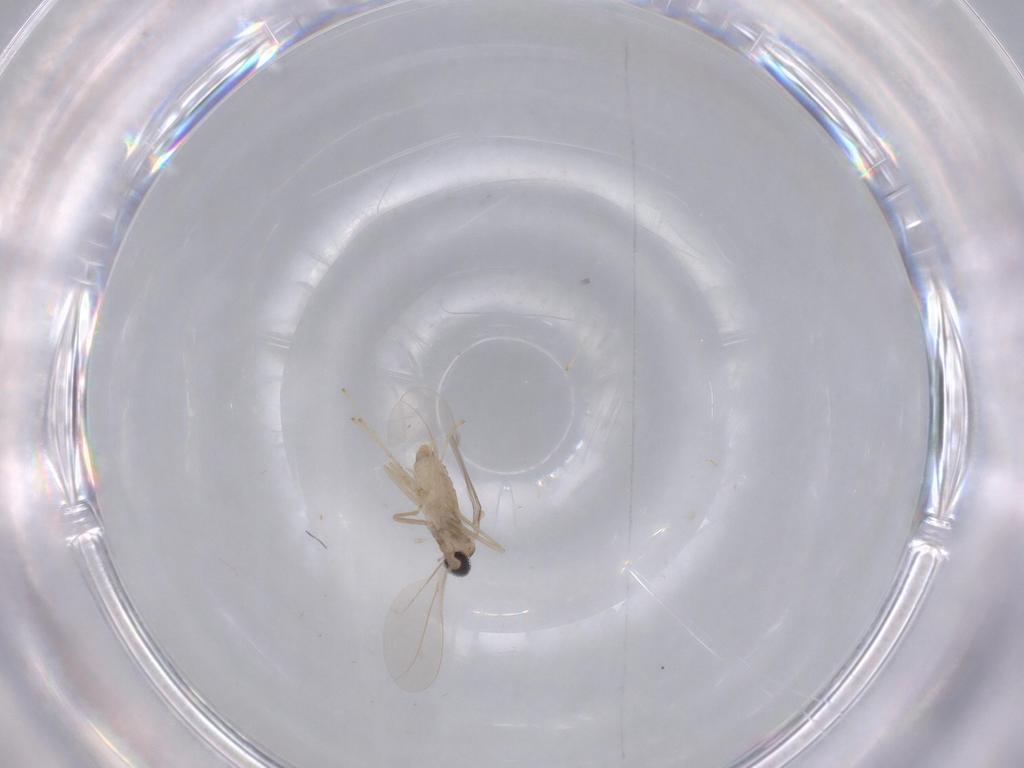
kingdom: Animalia
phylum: Arthropoda
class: Insecta
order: Diptera
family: Cecidomyiidae
